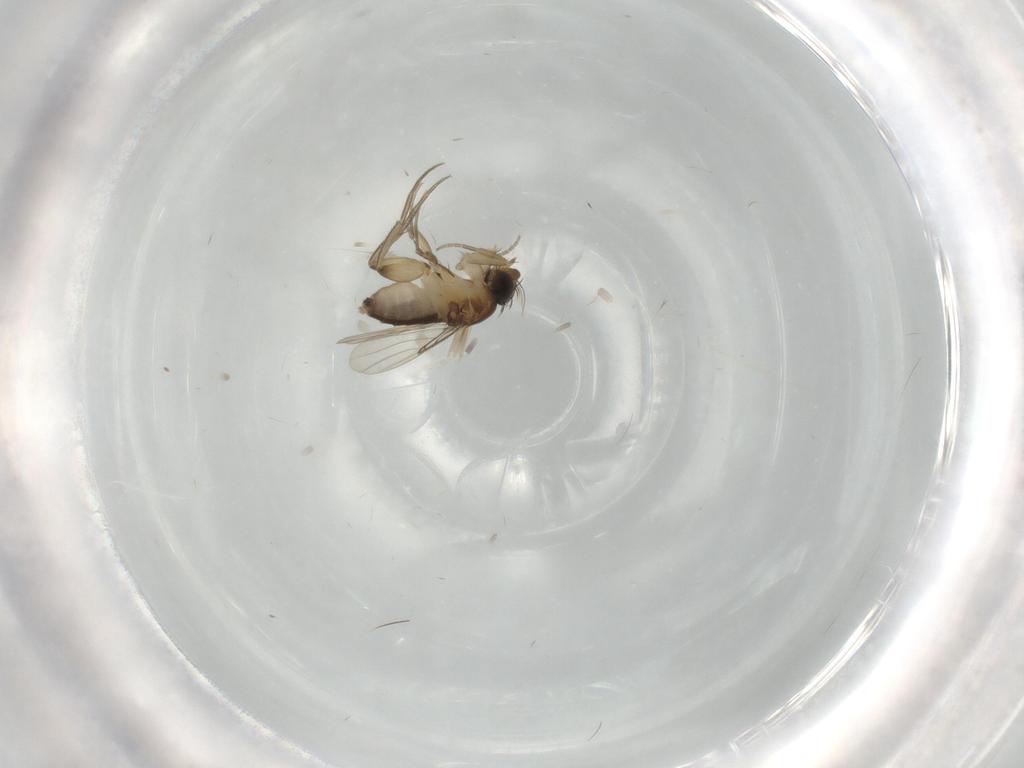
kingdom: Animalia
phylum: Arthropoda
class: Insecta
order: Diptera
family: Phoridae
